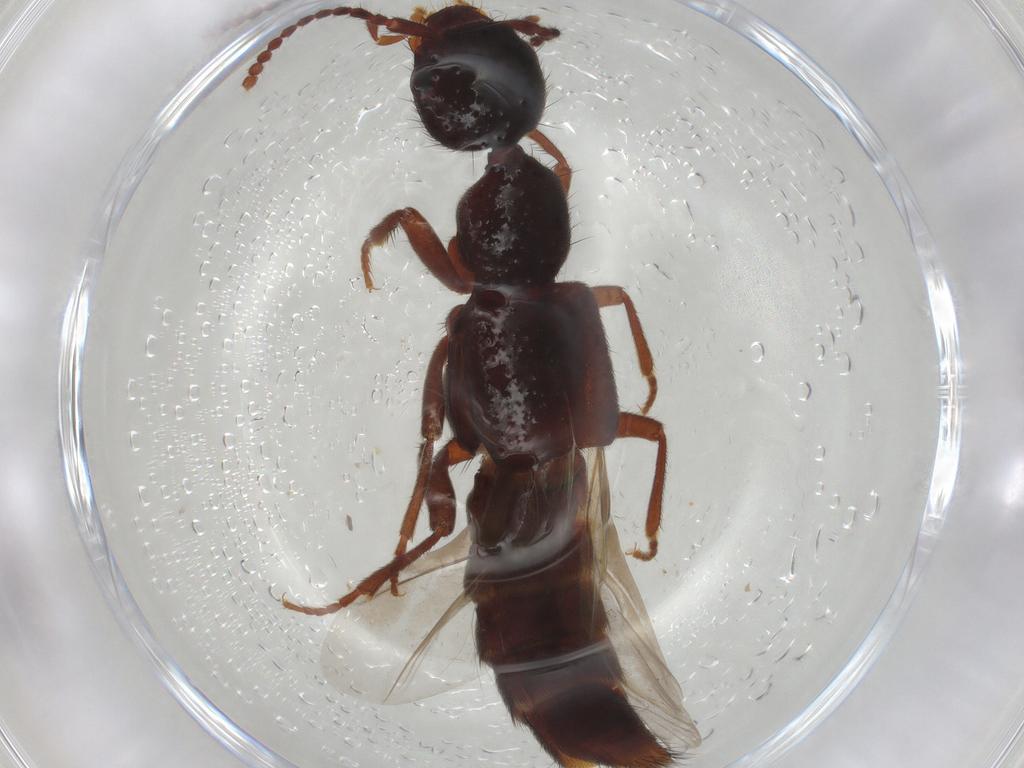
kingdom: Animalia
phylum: Arthropoda
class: Insecta
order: Coleoptera
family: Staphylinidae
